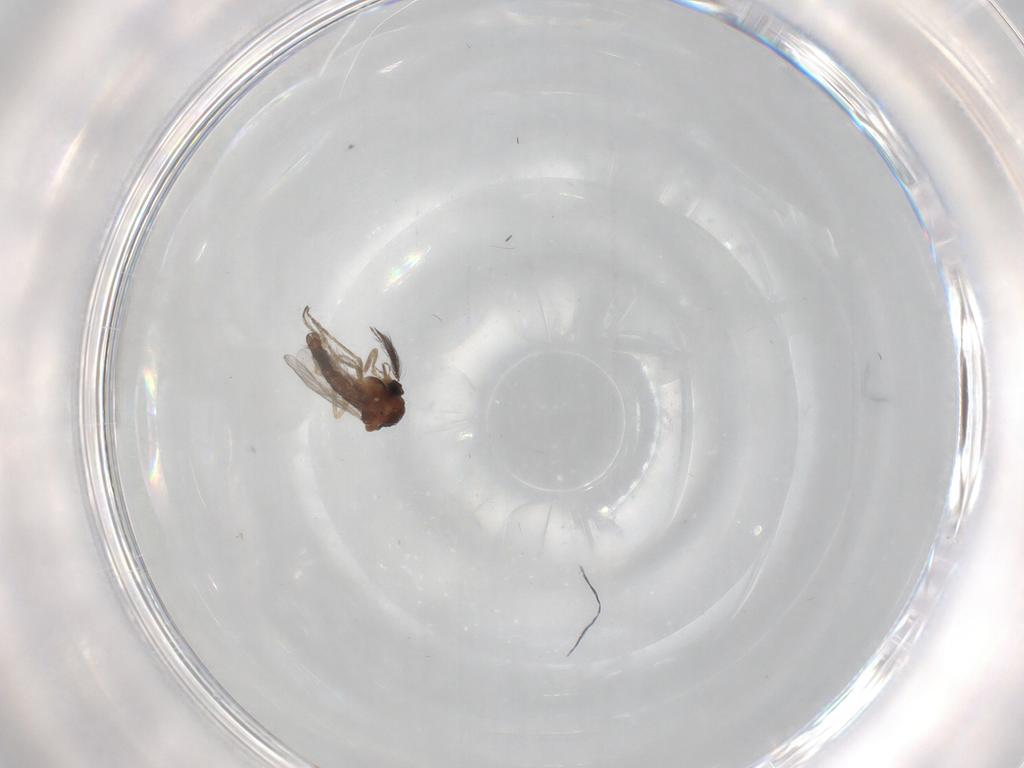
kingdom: Animalia
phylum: Arthropoda
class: Insecta
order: Diptera
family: Ceratopogonidae
